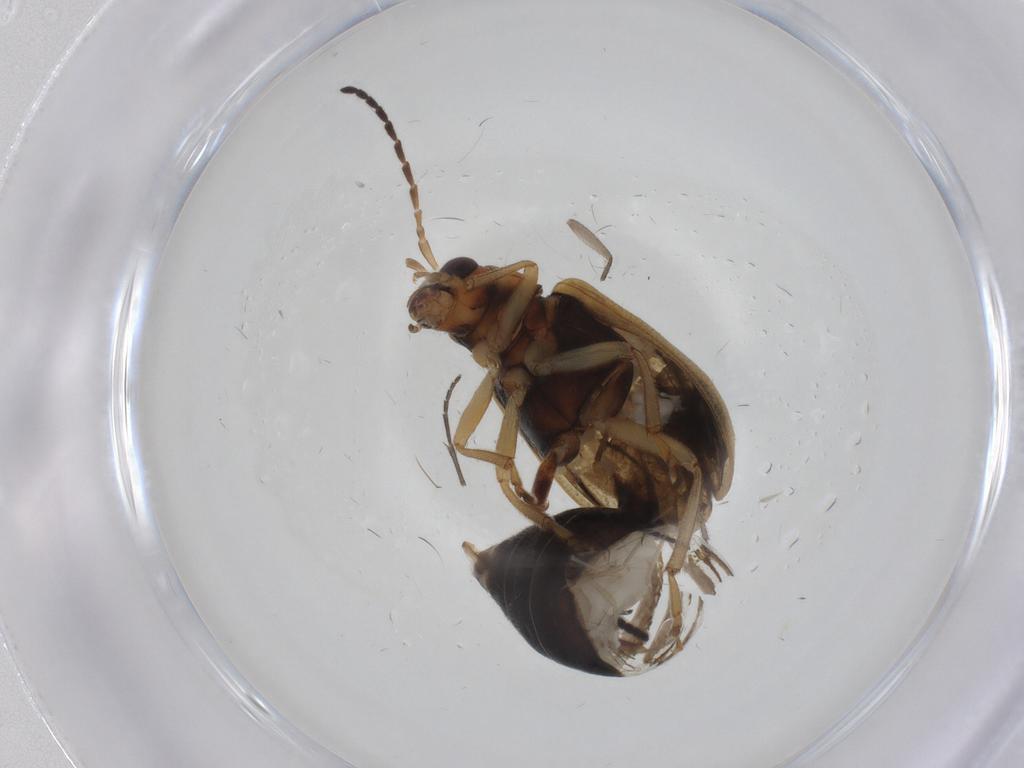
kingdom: Animalia
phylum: Arthropoda
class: Insecta
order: Coleoptera
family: Chrysomelidae
